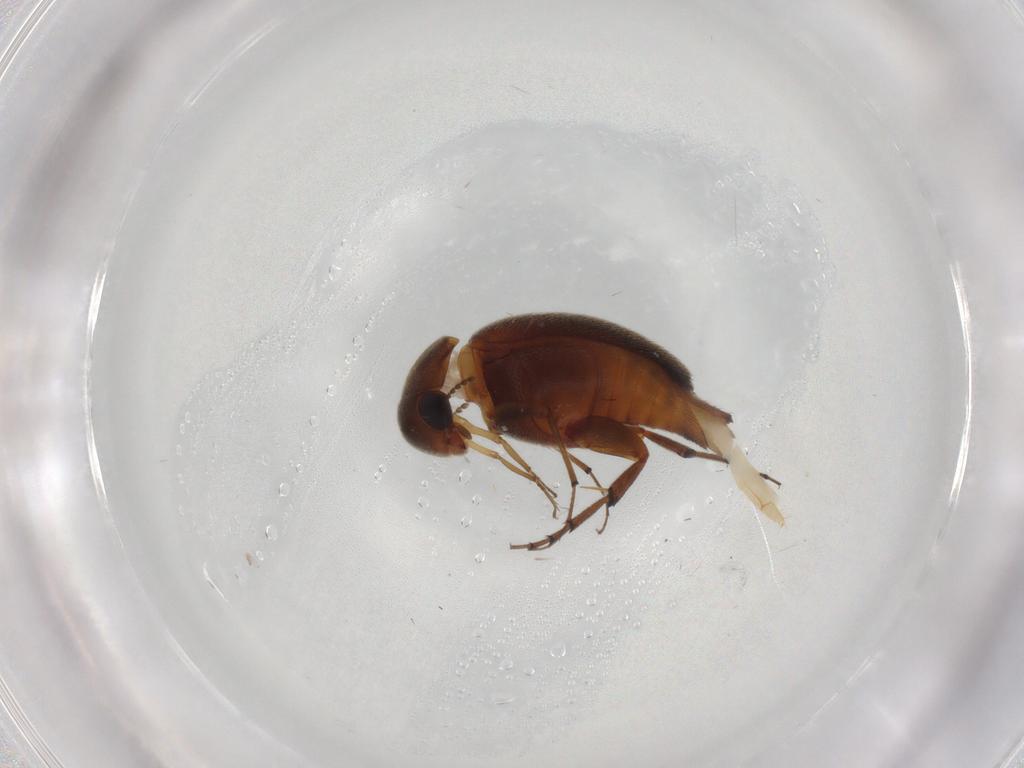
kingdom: Animalia
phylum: Arthropoda
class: Insecta
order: Coleoptera
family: Mordellidae
